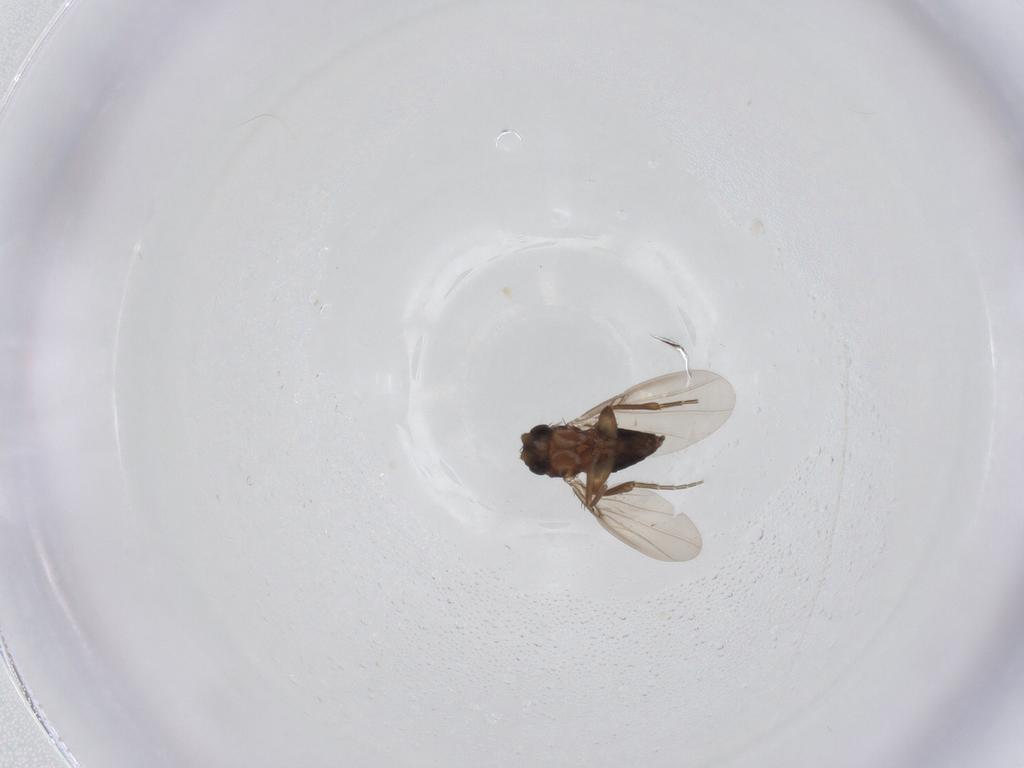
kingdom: Animalia
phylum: Arthropoda
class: Insecta
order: Diptera
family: Phoridae
